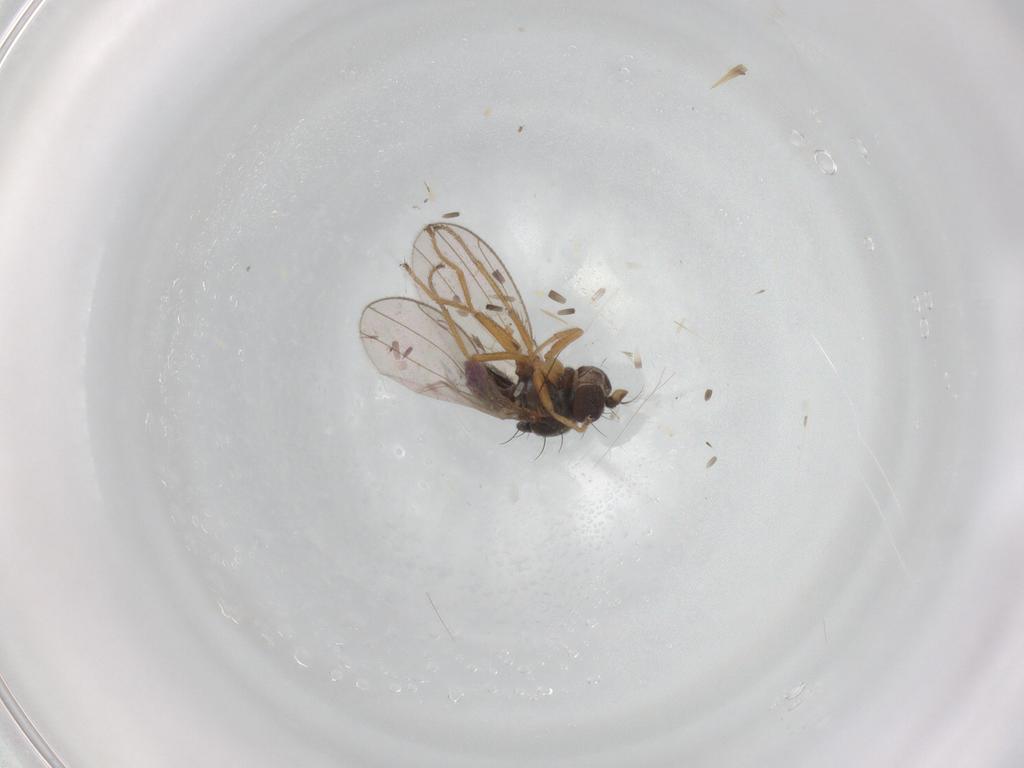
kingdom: Animalia
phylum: Arthropoda
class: Insecta
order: Diptera
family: Ephydridae
